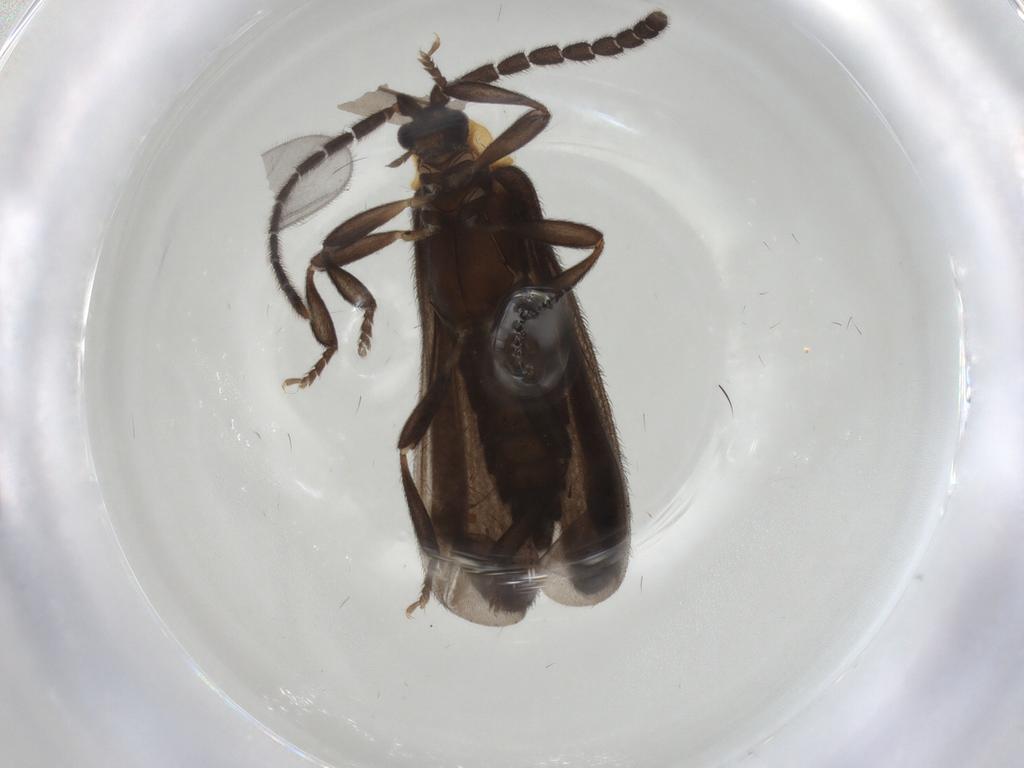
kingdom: Animalia
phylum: Arthropoda
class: Insecta
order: Coleoptera
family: Lycidae
